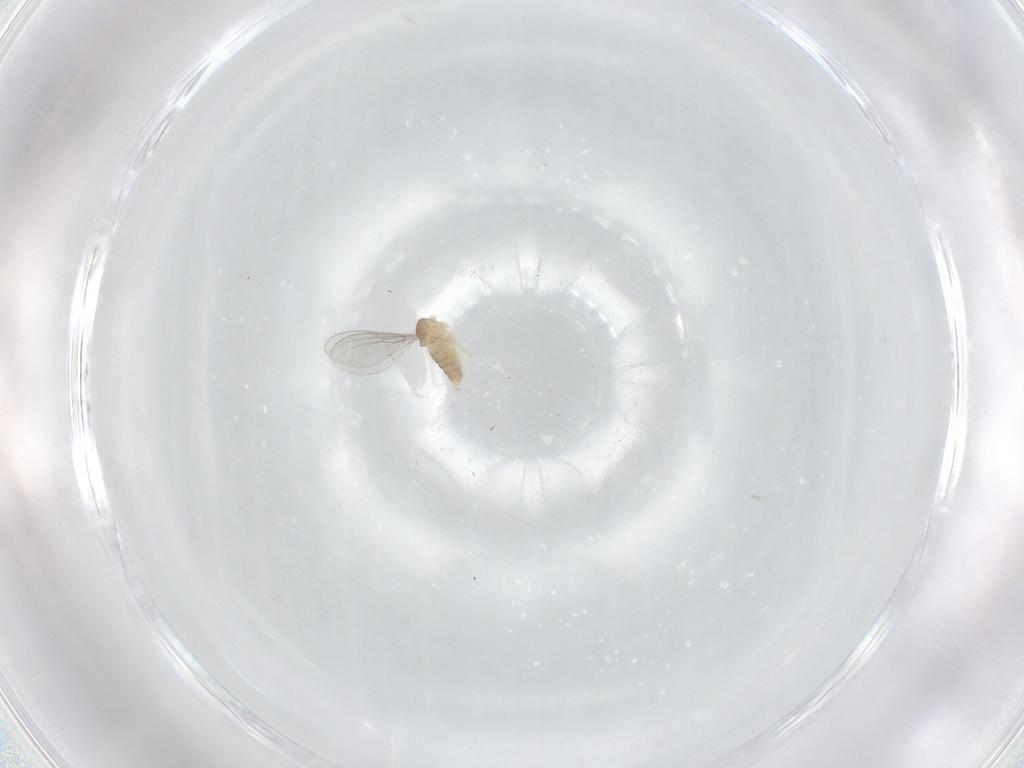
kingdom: Animalia
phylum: Arthropoda
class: Insecta
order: Diptera
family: Cecidomyiidae
